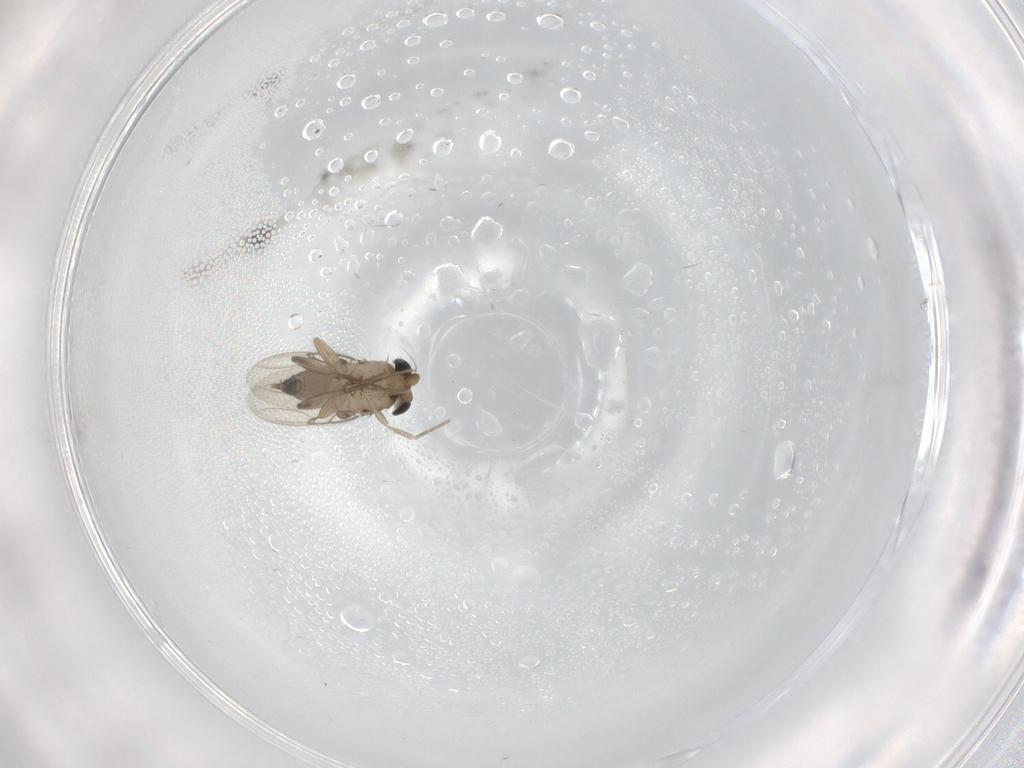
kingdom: Animalia
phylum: Arthropoda
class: Insecta
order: Diptera
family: Phoridae
